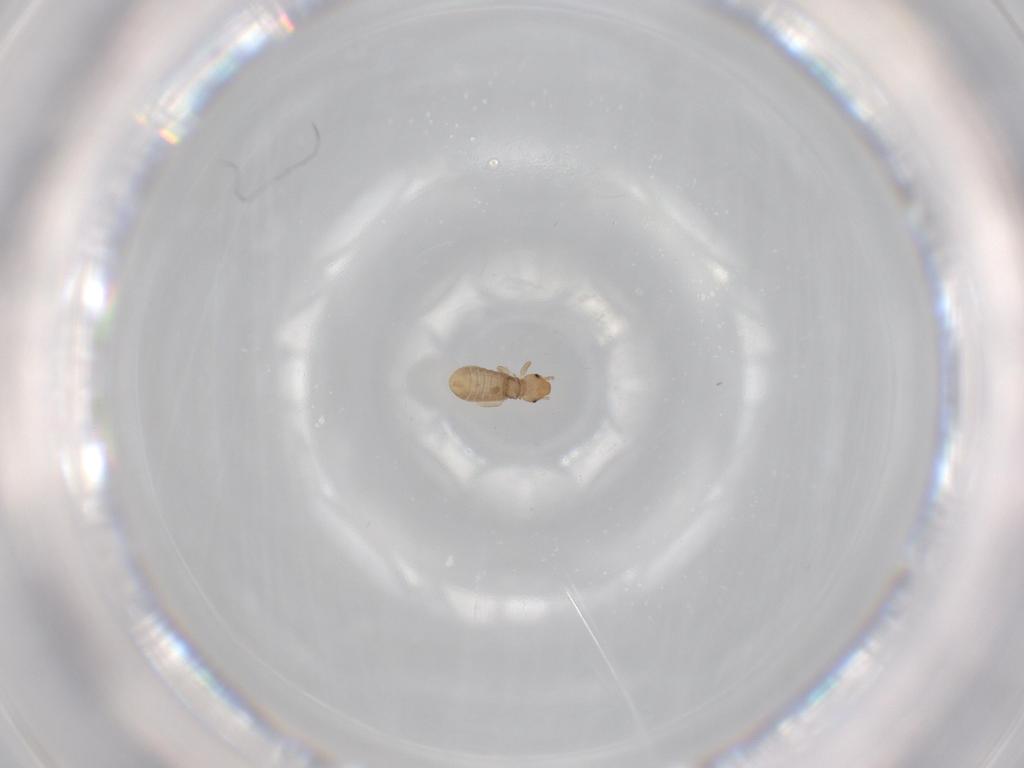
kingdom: Animalia
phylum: Arthropoda
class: Insecta
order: Psocodea
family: Liposcelididae
